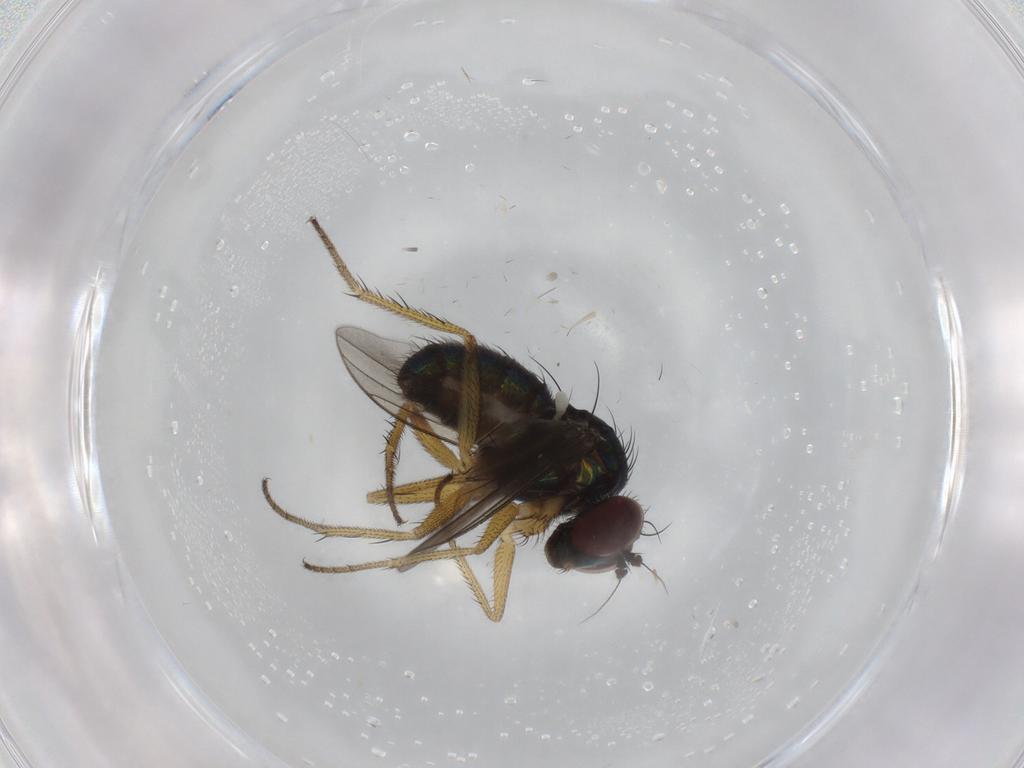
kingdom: Animalia
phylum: Arthropoda
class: Insecta
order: Diptera
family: Dolichopodidae
